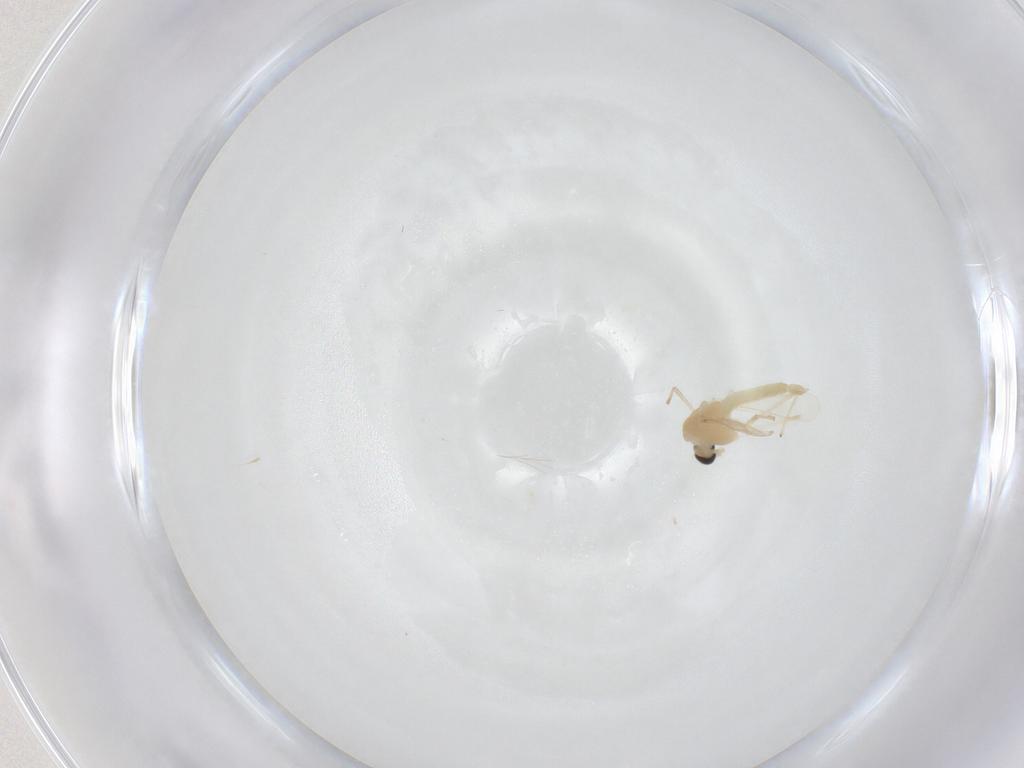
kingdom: Animalia
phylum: Arthropoda
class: Insecta
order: Diptera
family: Chironomidae
